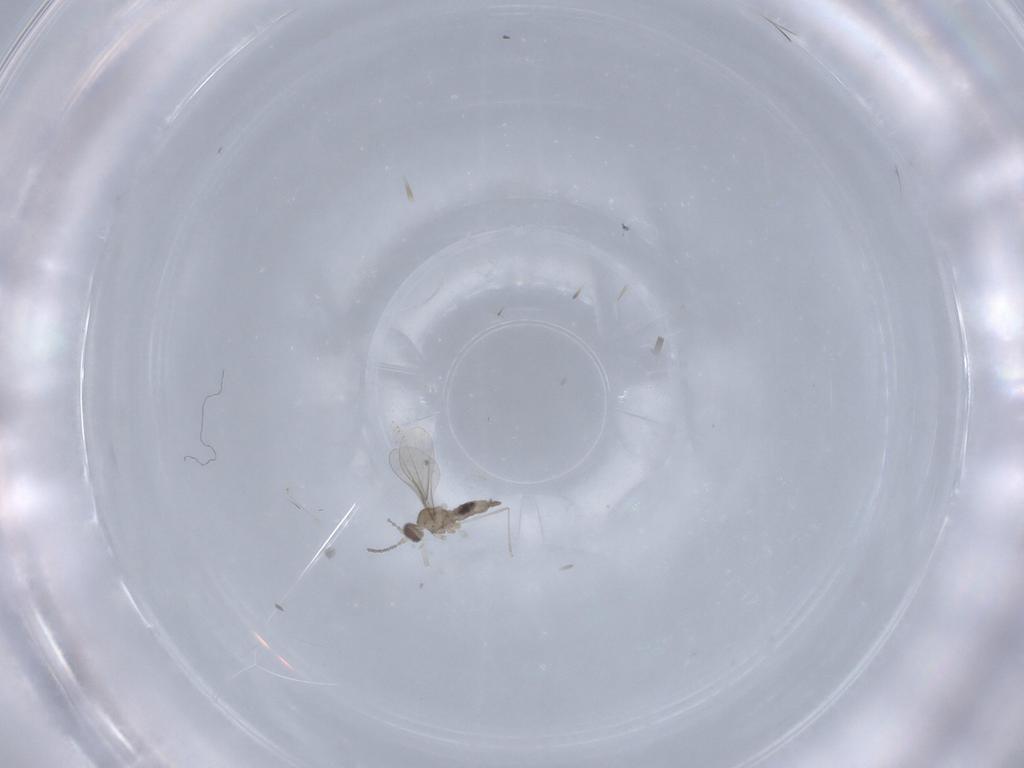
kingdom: Animalia
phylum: Arthropoda
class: Insecta
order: Diptera
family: Cecidomyiidae
